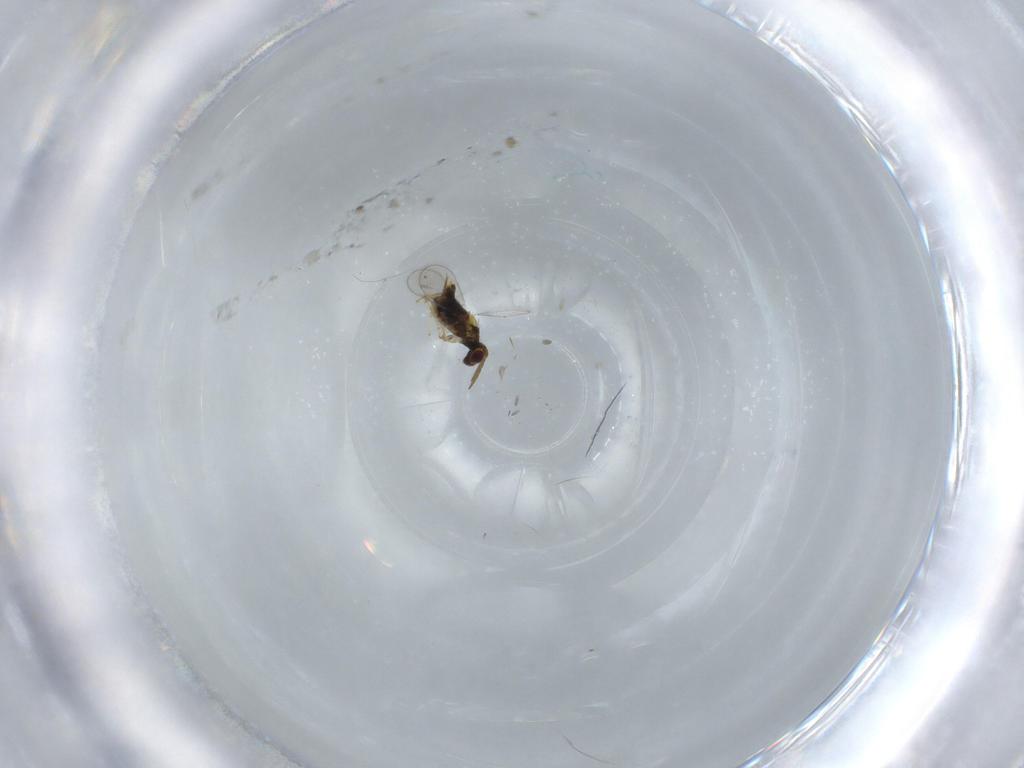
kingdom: Animalia
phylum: Arthropoda
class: Insecta
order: Hymenoptera
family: Aphelinidae
